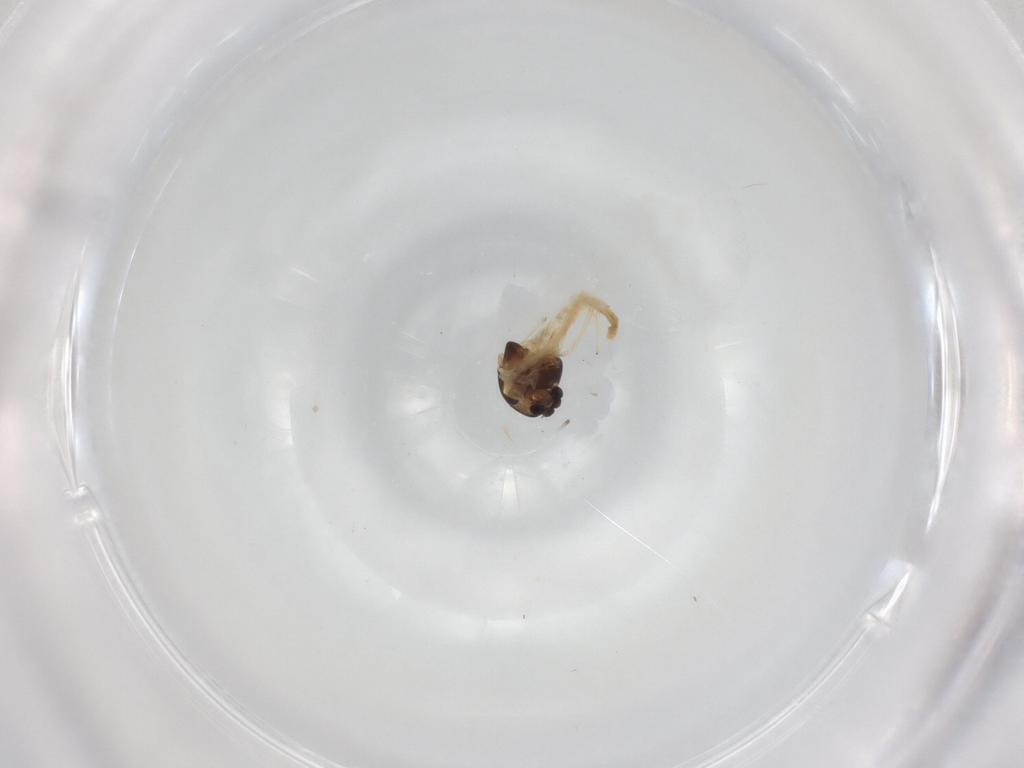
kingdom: Animalia
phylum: Arthropoda
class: Insecta
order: Diptera
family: Chironomidae
